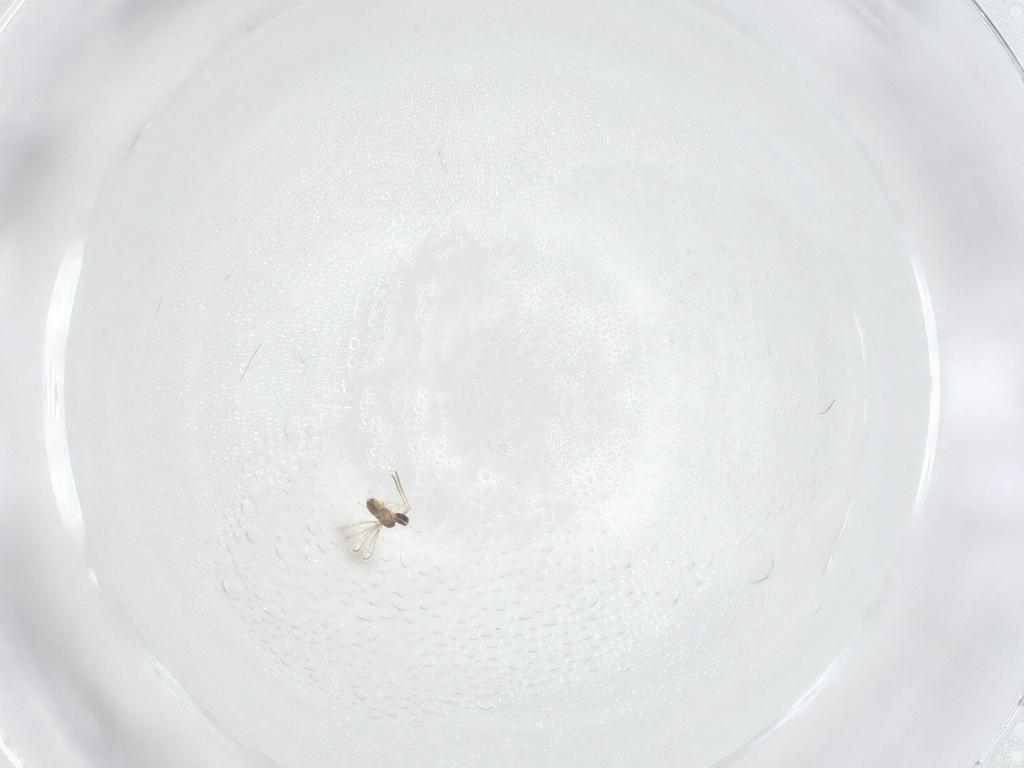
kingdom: Animalia
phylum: Arthropoda
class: Insecta
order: Hymenoptera
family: Mymaridae
